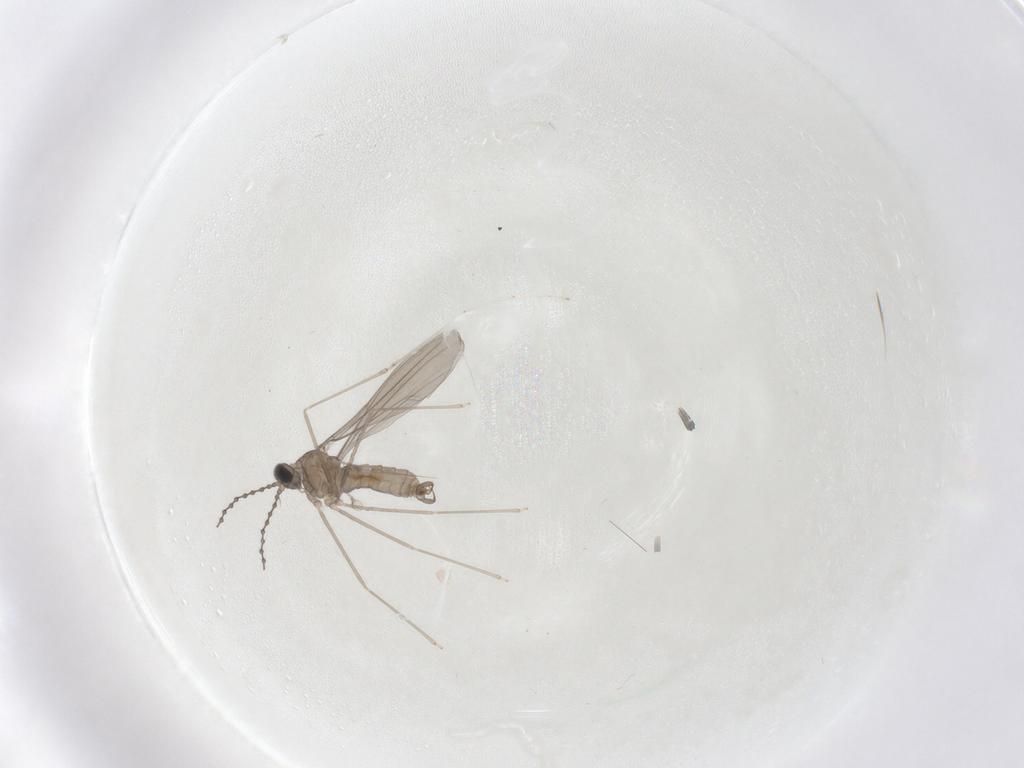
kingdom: Animalia
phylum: Arthropoda
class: Insecta
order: Diptera
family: Cecidomyiidae
